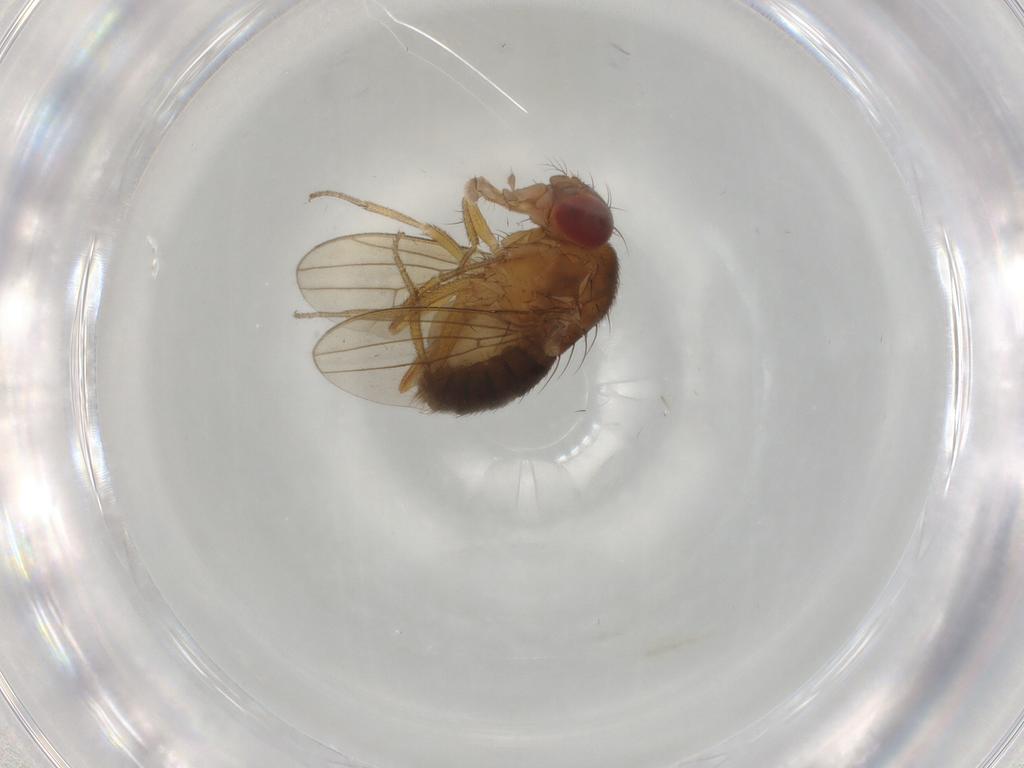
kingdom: Animalia
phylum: Arthropoda
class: Insecta
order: Diptera
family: Drosophilidae
